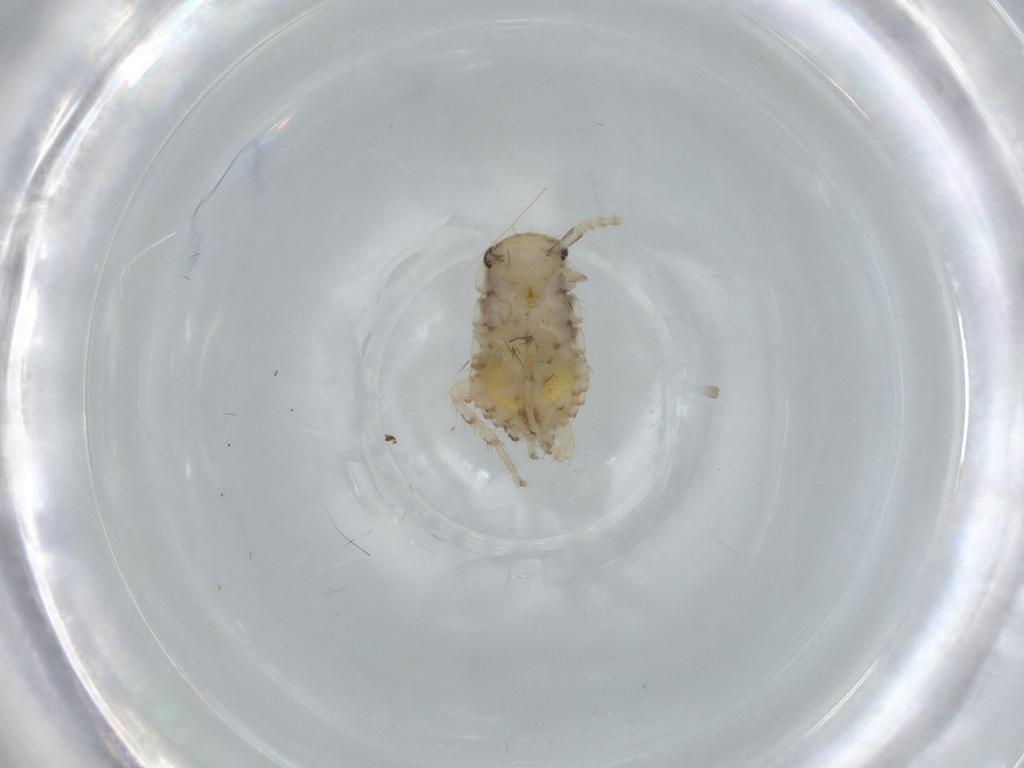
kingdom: Animalia
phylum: Arthropoda
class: Insecta
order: Blattodea
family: Ectobiidae
